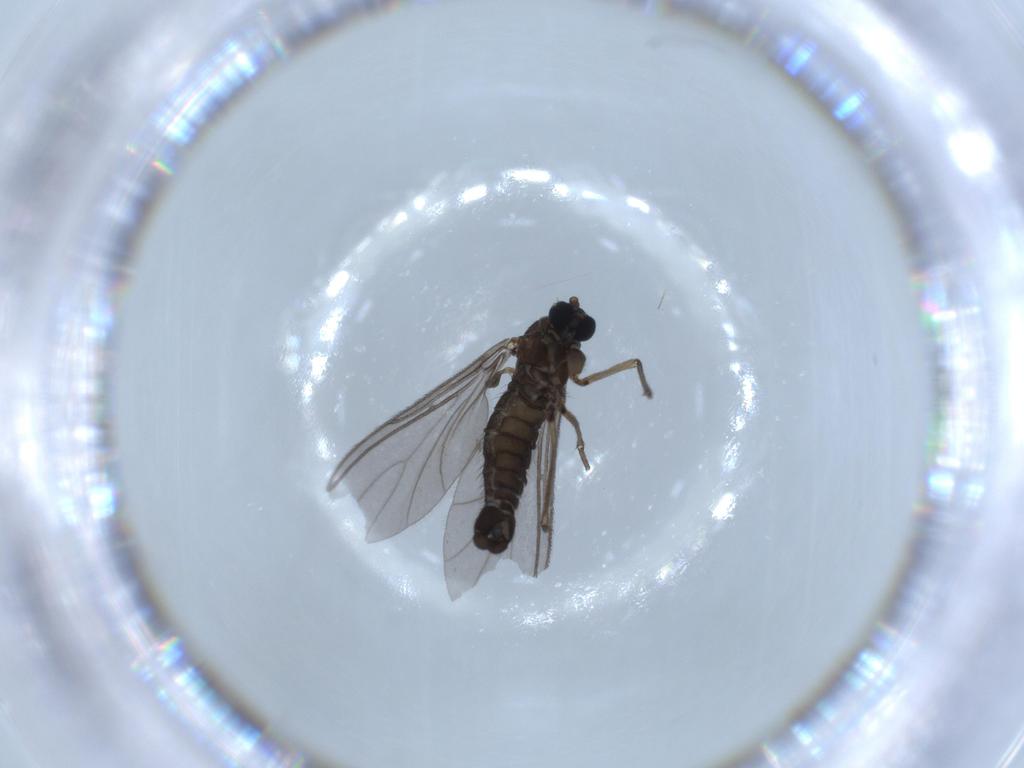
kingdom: Animalia
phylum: Arthropoda
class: Insecta
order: Diptera
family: Sciaridae
